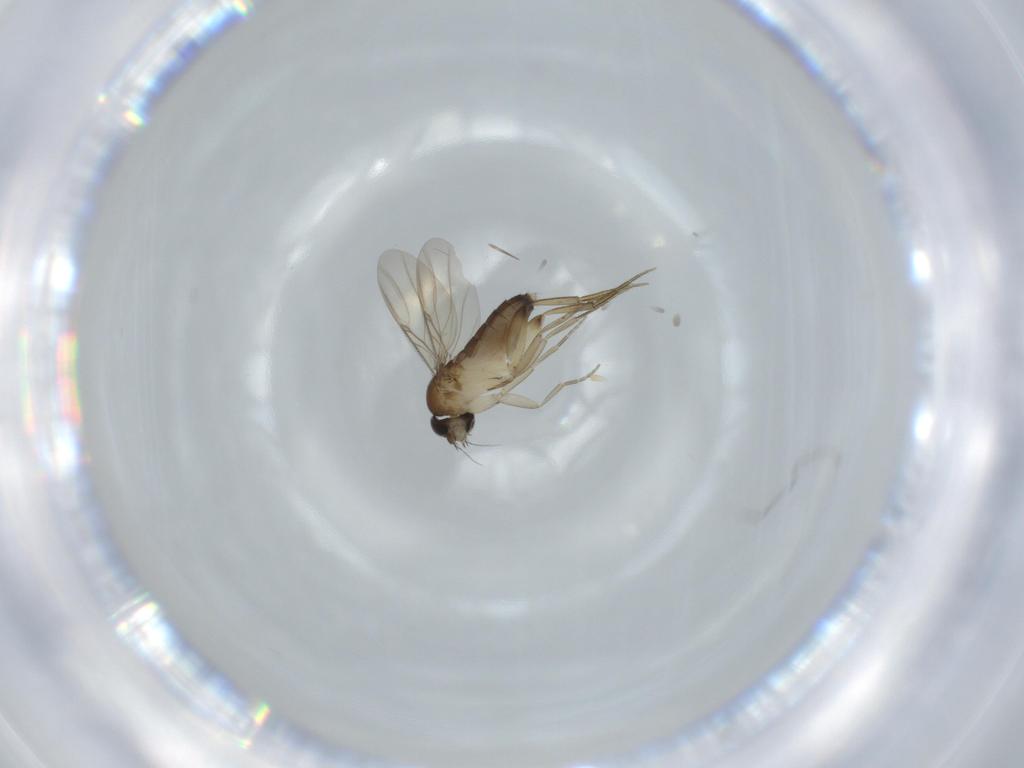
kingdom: Animalia
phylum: Arthropoda
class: Insecta
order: Diptera
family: Phoridae
